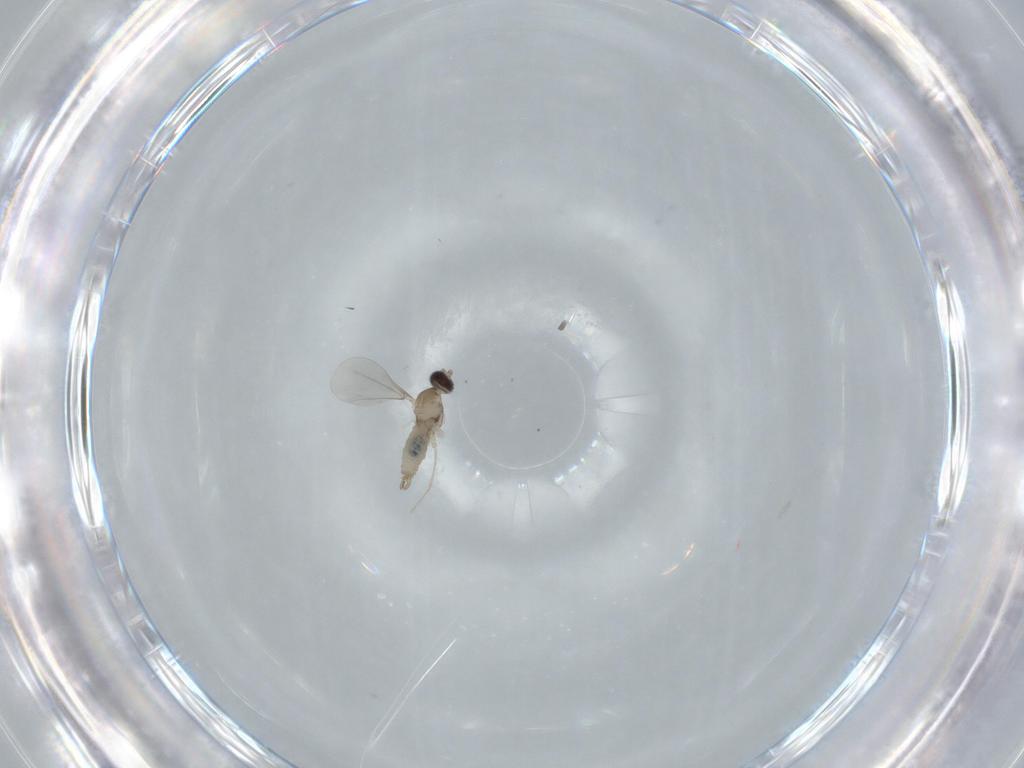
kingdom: Animalia
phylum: Arthropoda
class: Insecta
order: Diptera
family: Cecidomyiidae
